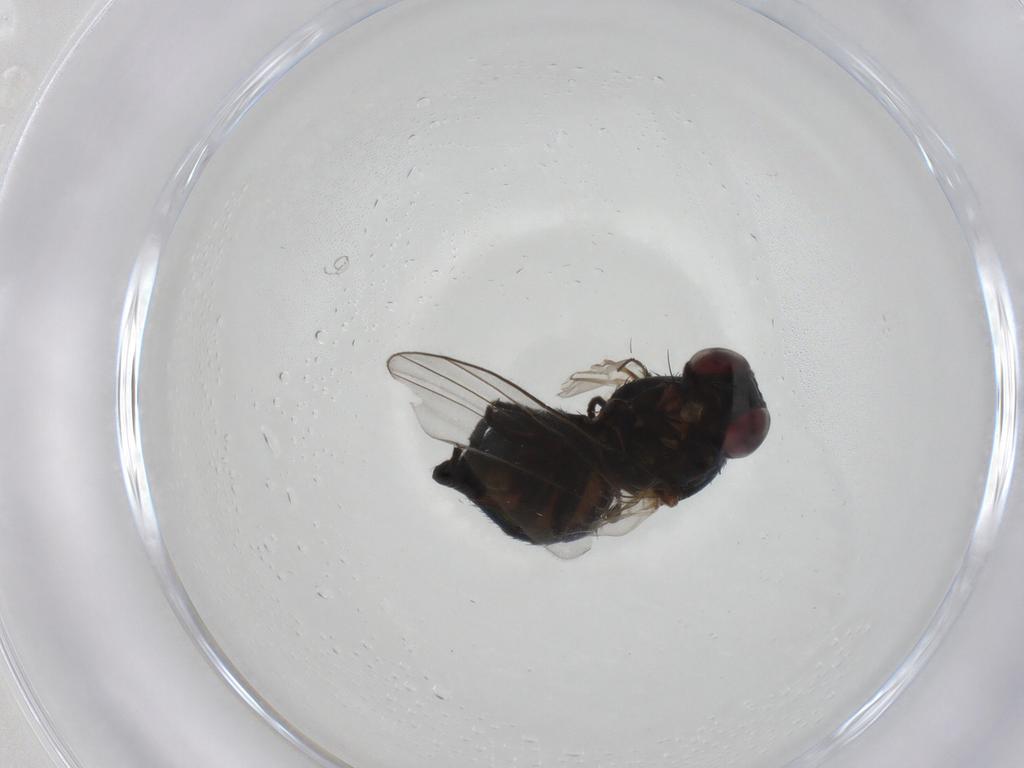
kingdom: Animalia
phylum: Arthropoda
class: Insecta
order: Diptera
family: Agromyzidae
